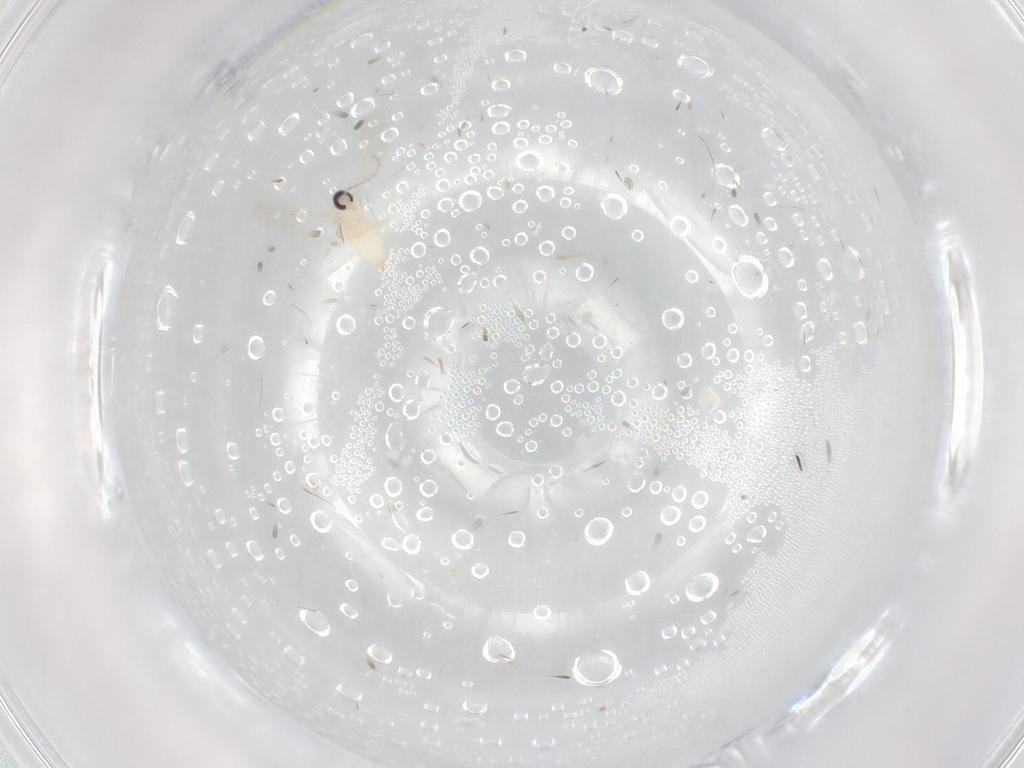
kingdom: Animalia
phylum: Arthropoda
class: Insecta
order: Diptera
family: Cecidomyiidae
